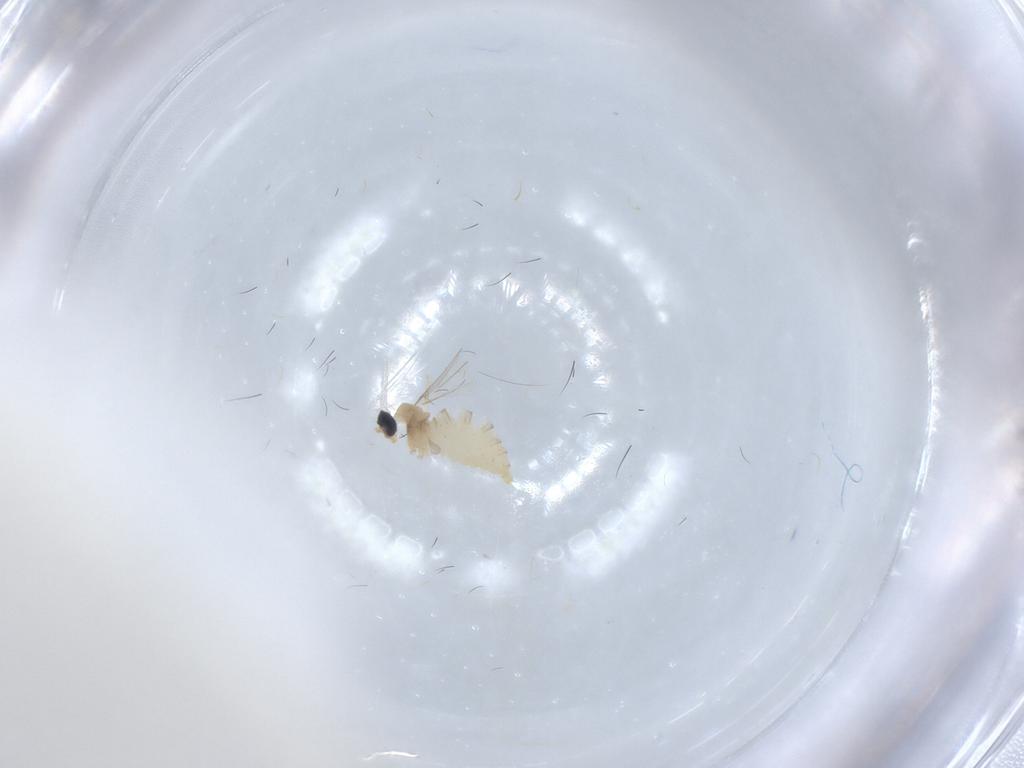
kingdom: Animalia
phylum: Arthropoda
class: Insecta
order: Diptera
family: Cecidomyiidae
